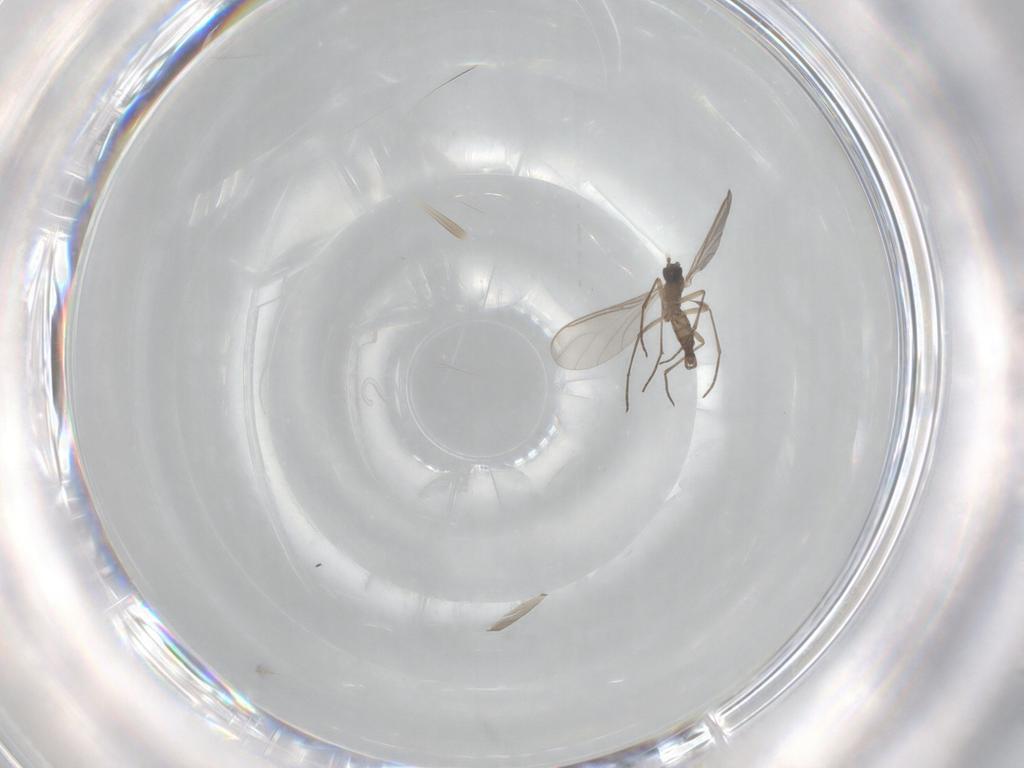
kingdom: Animalia
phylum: Arthropoda
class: Insecta
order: Diptera
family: Sciaridae
